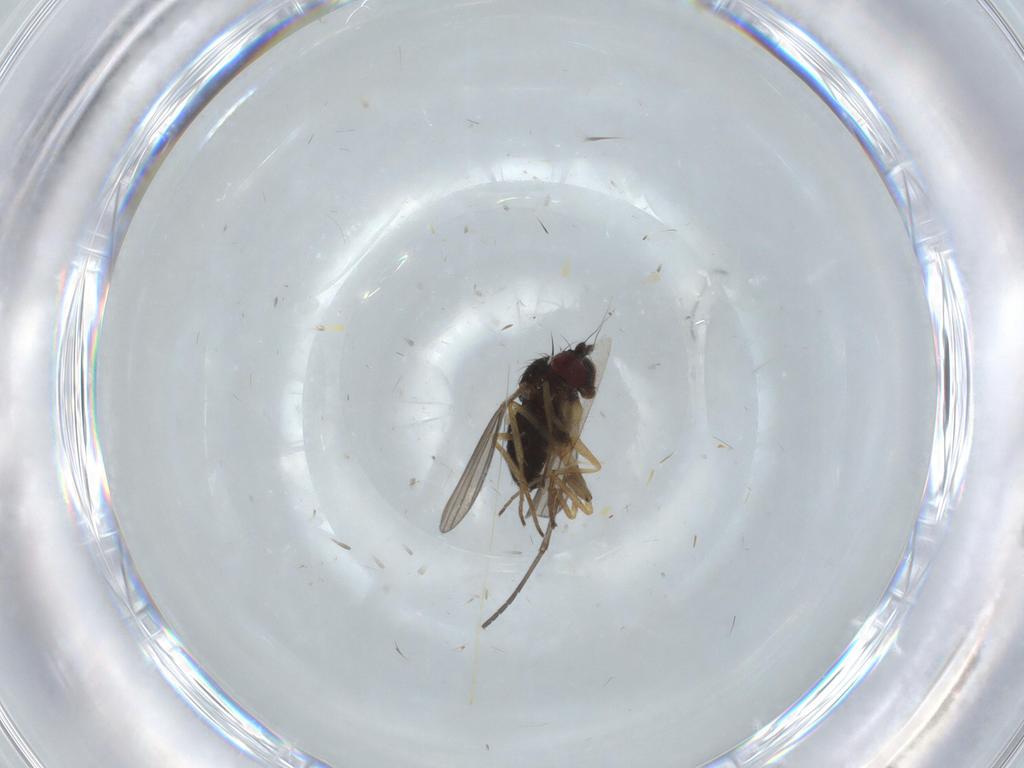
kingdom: Animalia
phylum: Arthropoda
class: Insecta
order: Diptera
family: Dolichopodidae
